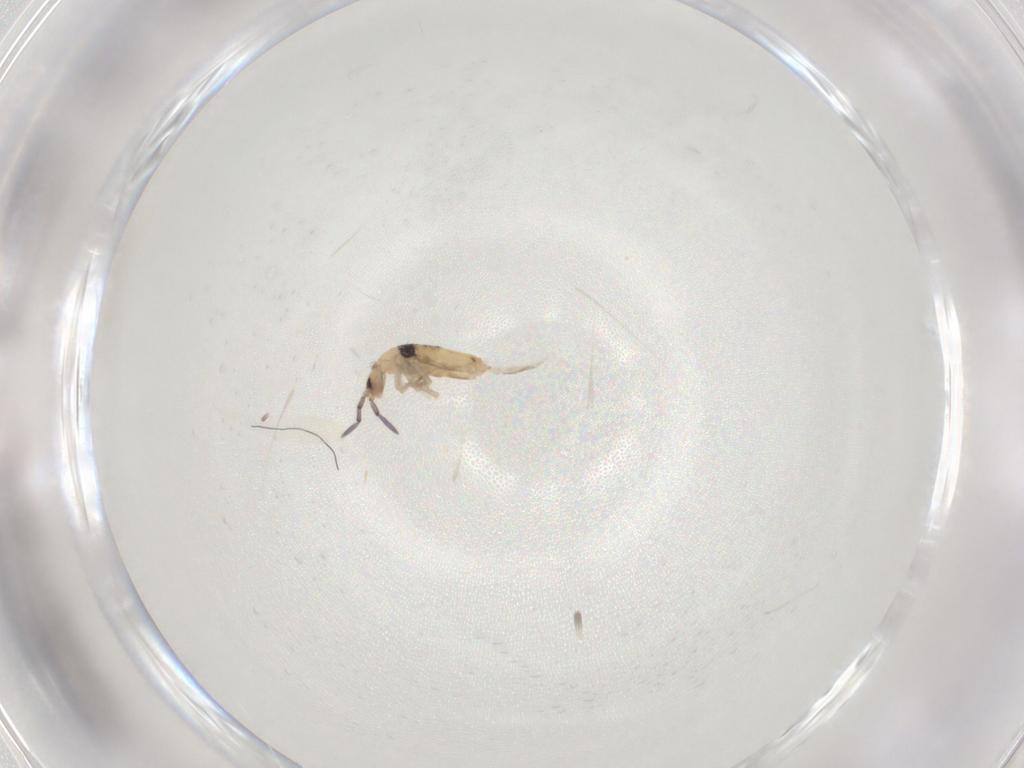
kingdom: Animalia
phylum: Arthropoda
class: Collembola
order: Entomobryomorpha
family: Entomobryidae
